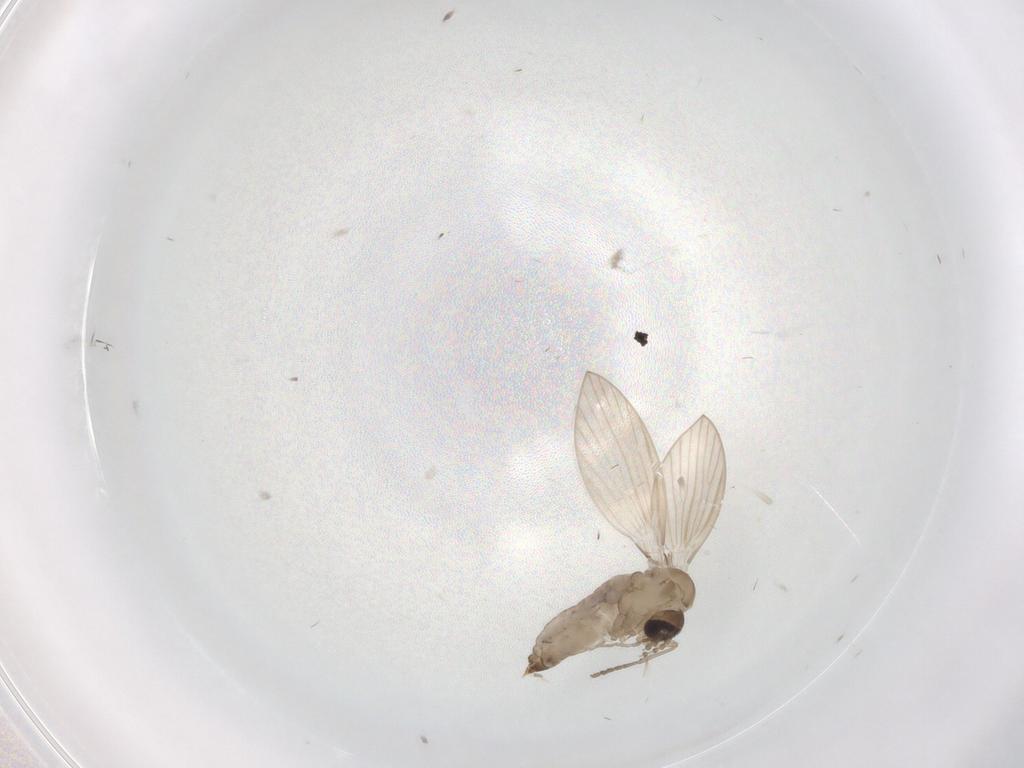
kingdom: Animalia
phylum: Arthropoda
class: Insecta
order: Diptera
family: Psychodidae
